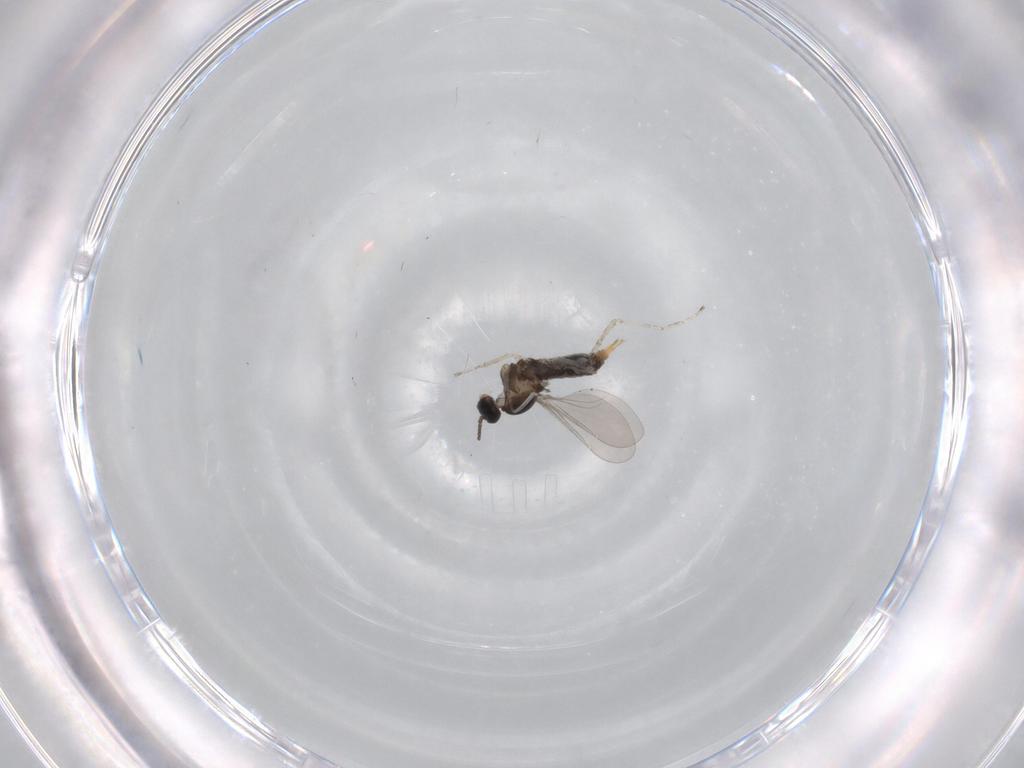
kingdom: Animalia
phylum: Arthropoda
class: Insecta
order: Diptera
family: Cecidomyiidae
